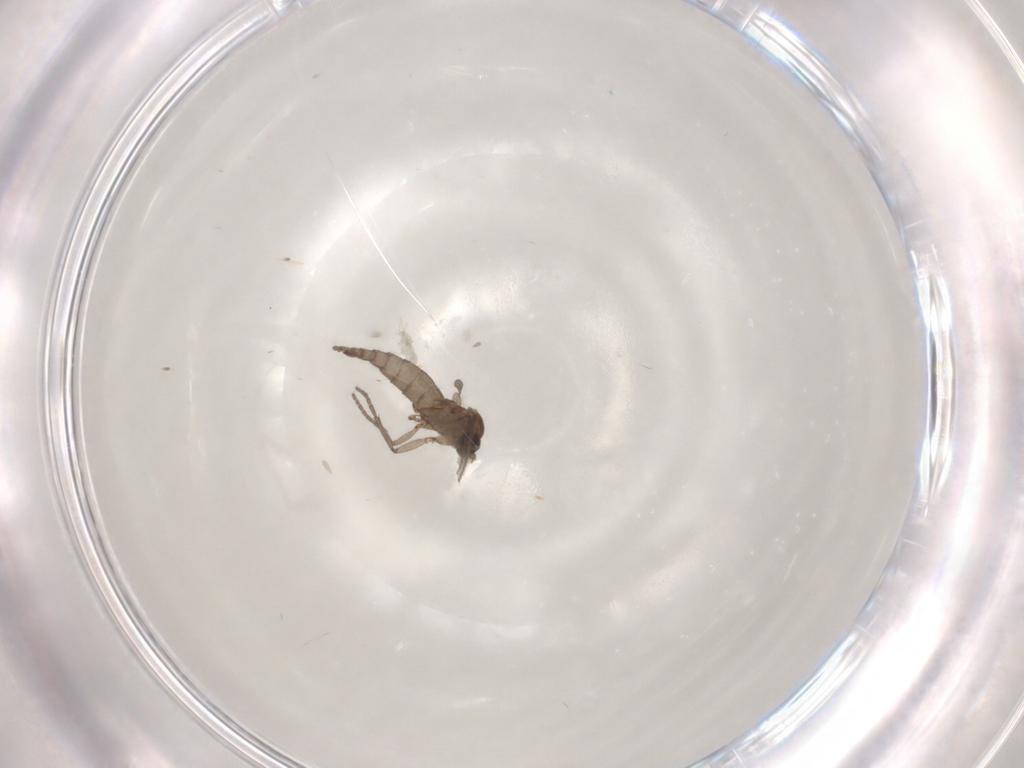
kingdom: Animalia
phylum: Arthropoda
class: Insecta
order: Diptera
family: Sciaridae
